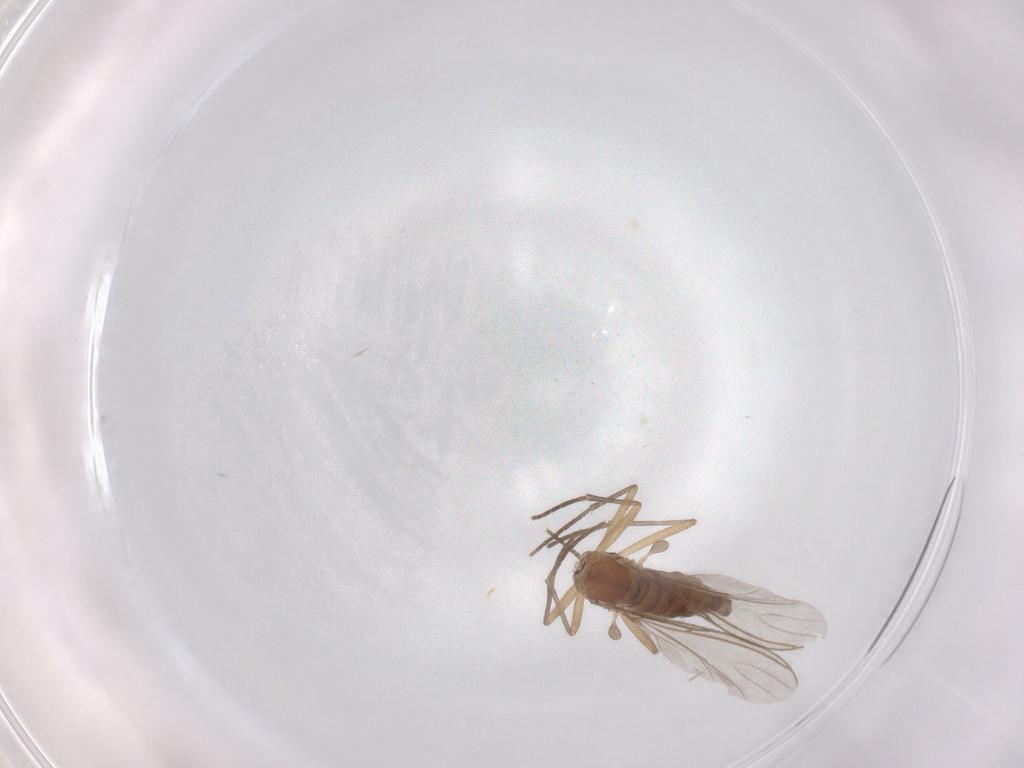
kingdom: Animalia
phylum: Arthropoda
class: Insecta
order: Diptera
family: Sciaridae
